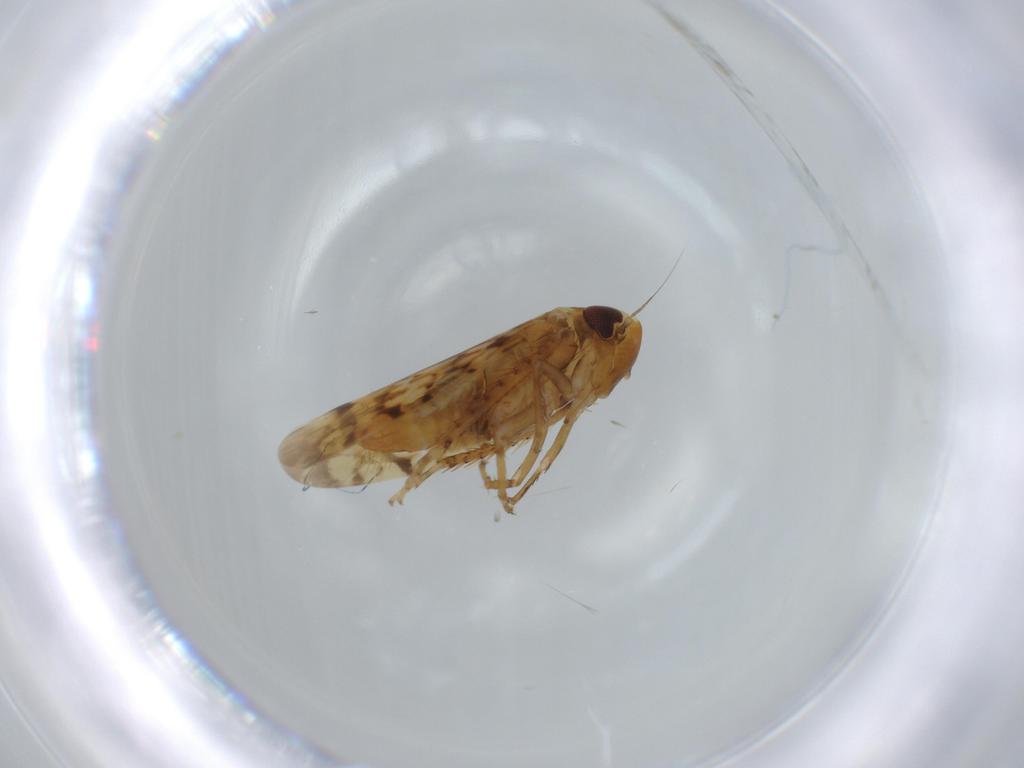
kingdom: Animalia
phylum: Arthropoda
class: Insecta
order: Hemiptera
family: Cicadellidae
